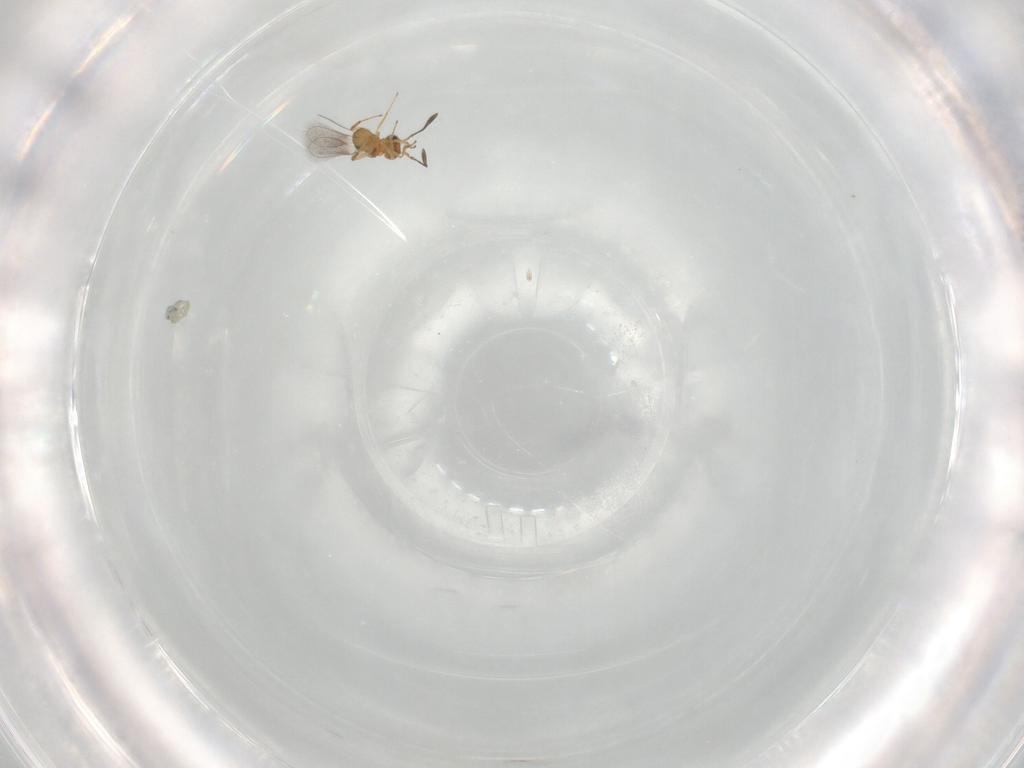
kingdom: Animalia
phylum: Arthropoda
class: Insecta
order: Hymenoptera
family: Mymaridae
